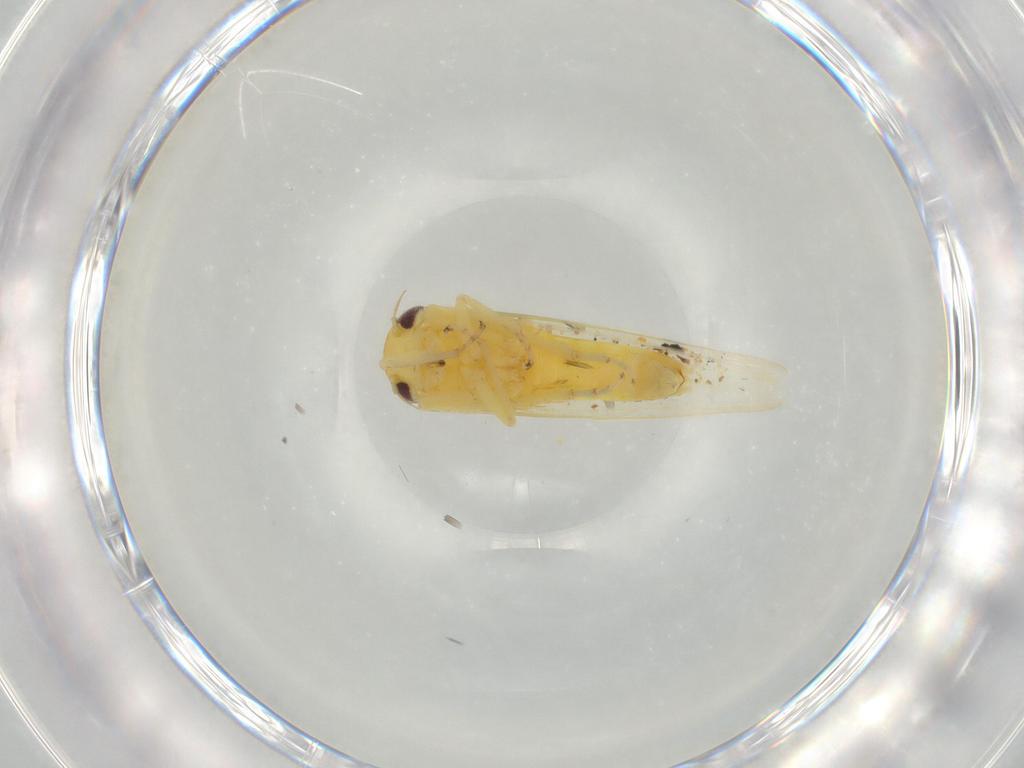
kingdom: Animalia
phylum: Arthropoda
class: Insecta
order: Hemiptera
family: Cicadellidae
